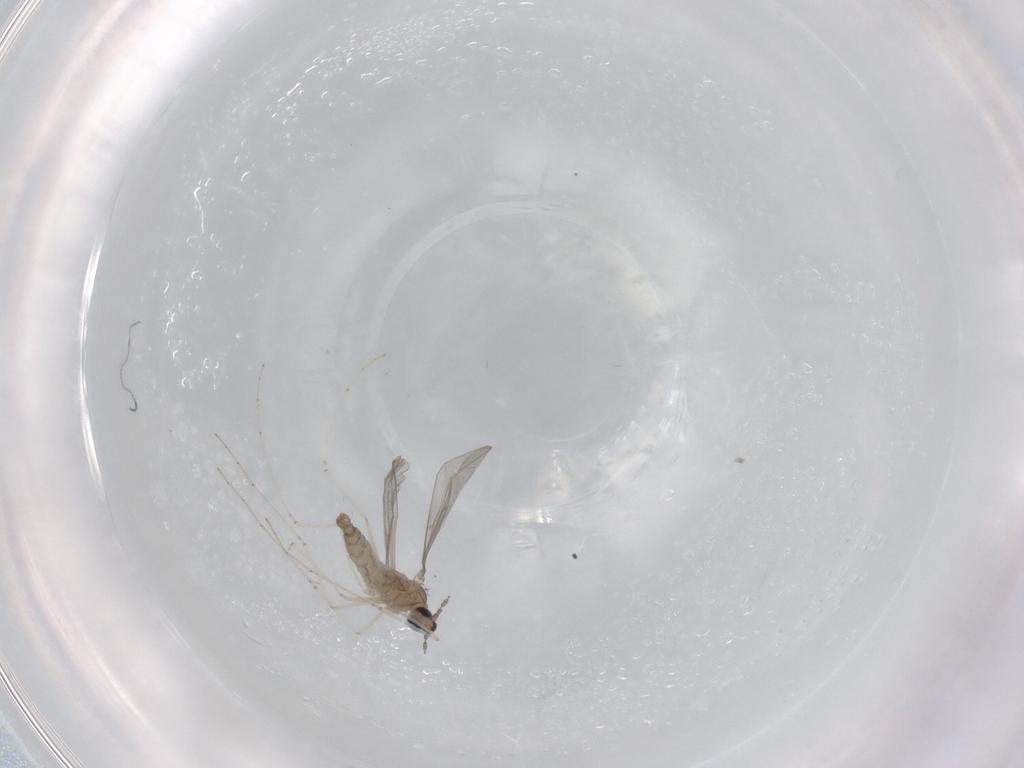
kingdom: Animalia
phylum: Arthropoda
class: Insecta
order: Diptera
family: Cecidomyiidae
